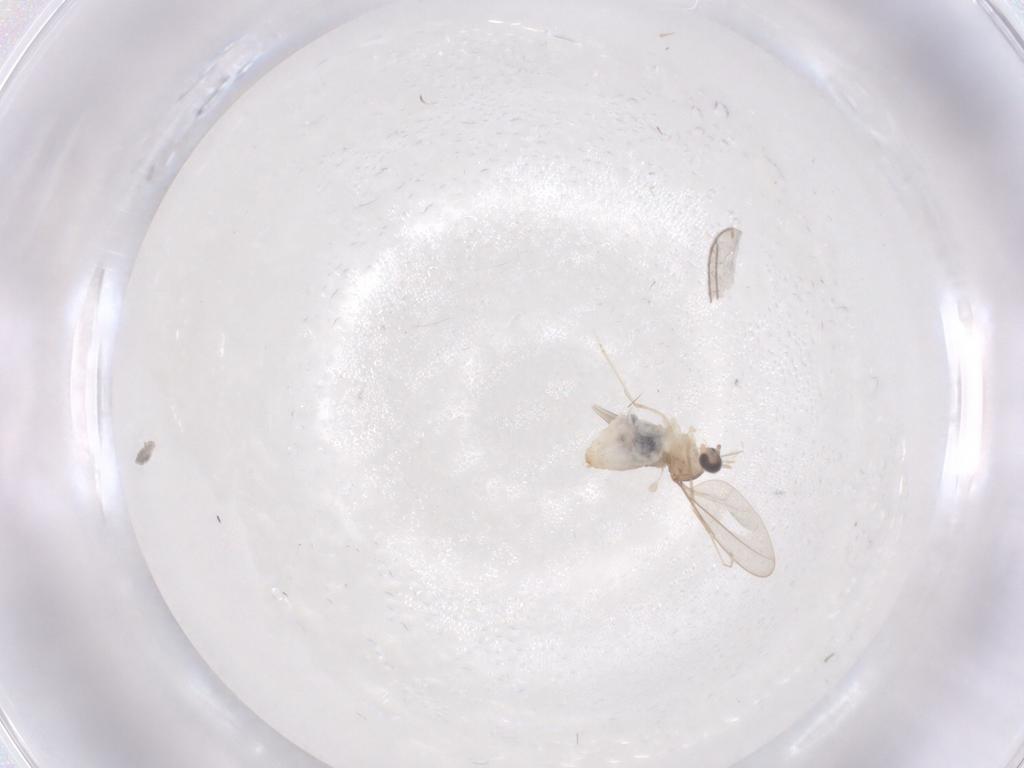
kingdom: Animalia
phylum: Arthropoda
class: Insecta
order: Diptera
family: Cecidomyiidae
